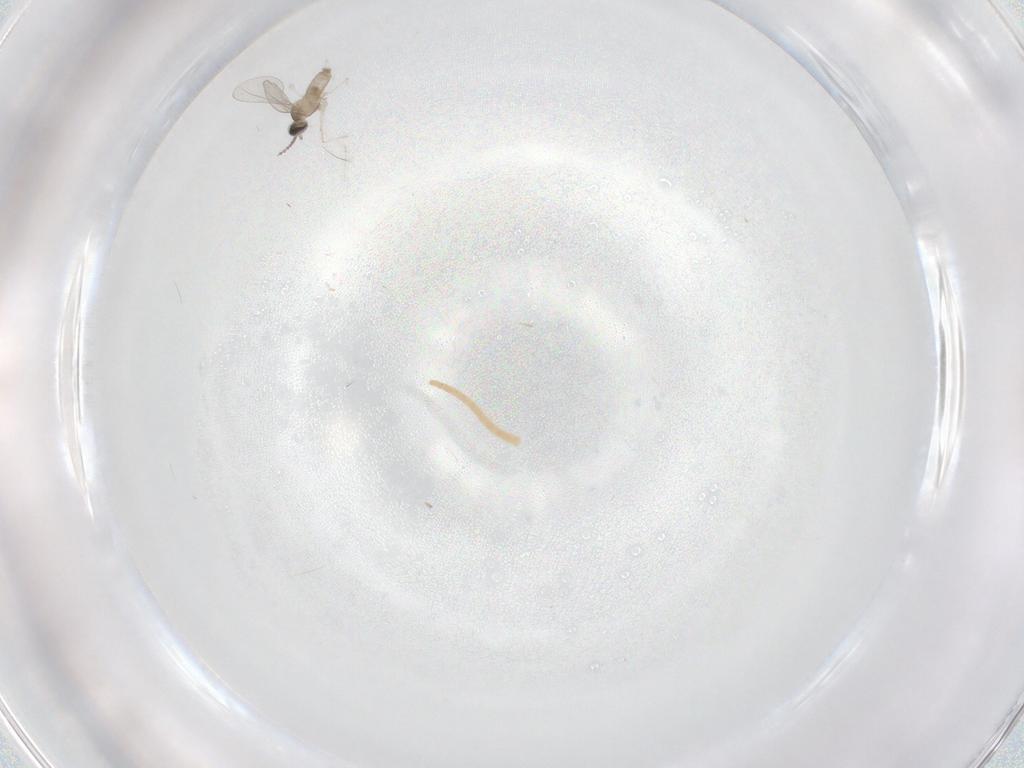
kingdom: Animalia
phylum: Arthropoda
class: Insecta
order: Diptera
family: Cecidomyiidae
